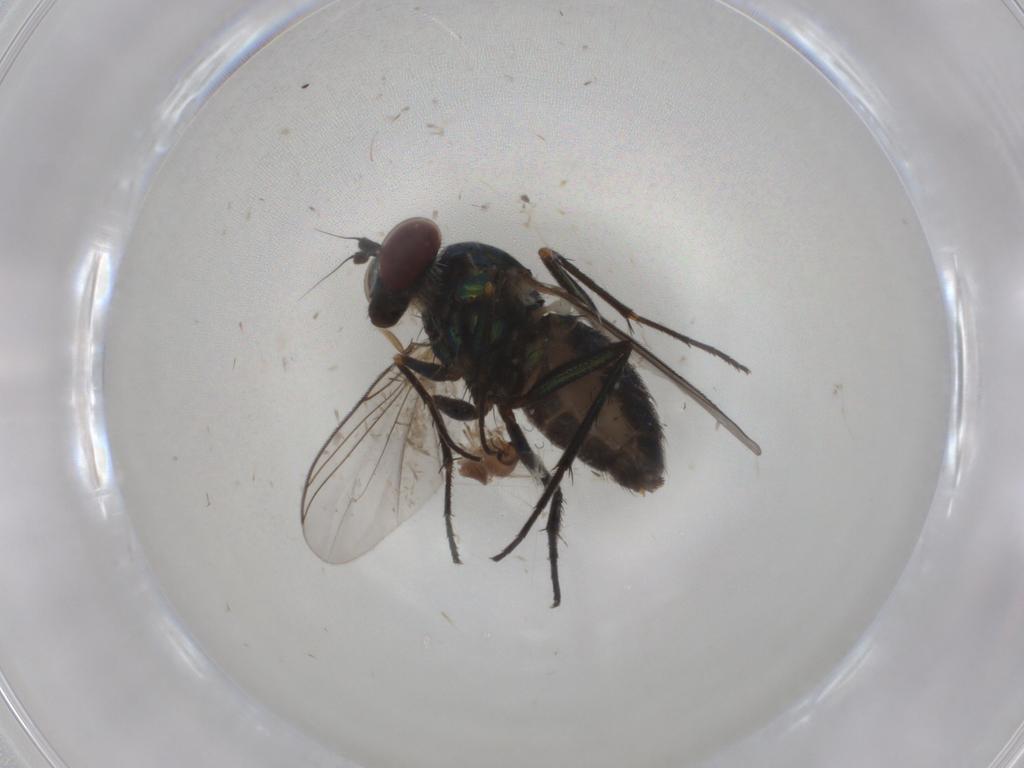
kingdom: Animalia
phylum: Arthropoda
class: Insecta
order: Diptera
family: Dolichopodidae
